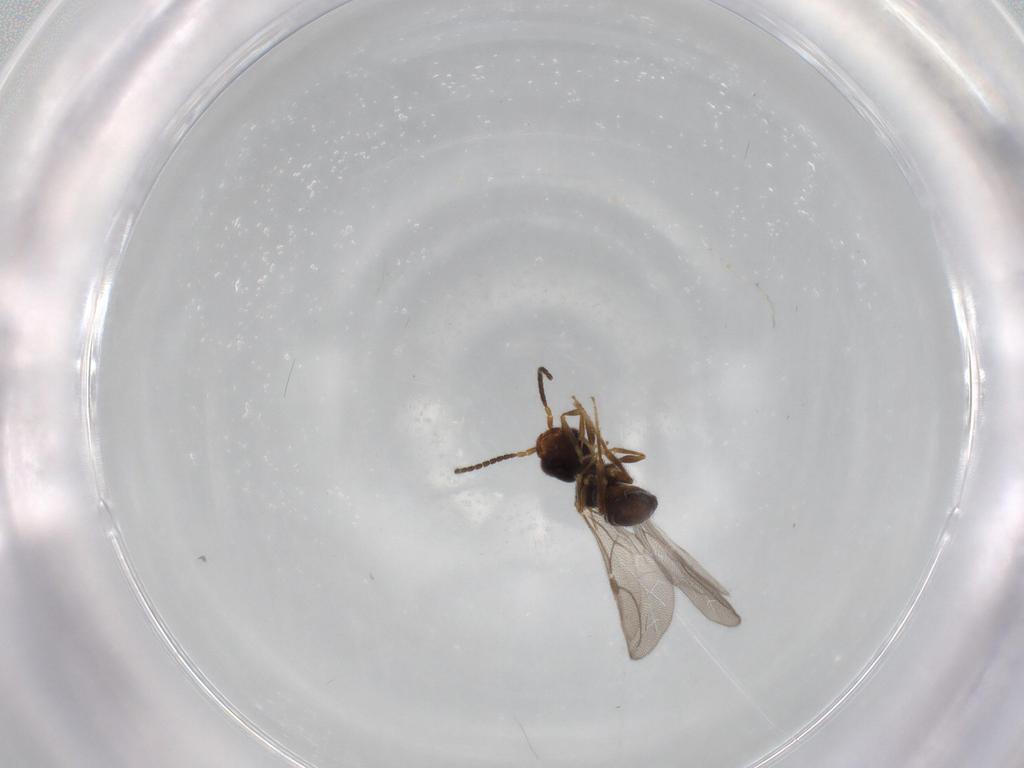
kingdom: Animalia
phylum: Arthropoda
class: Insecta
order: Hymenoptera
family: Bethylidae
